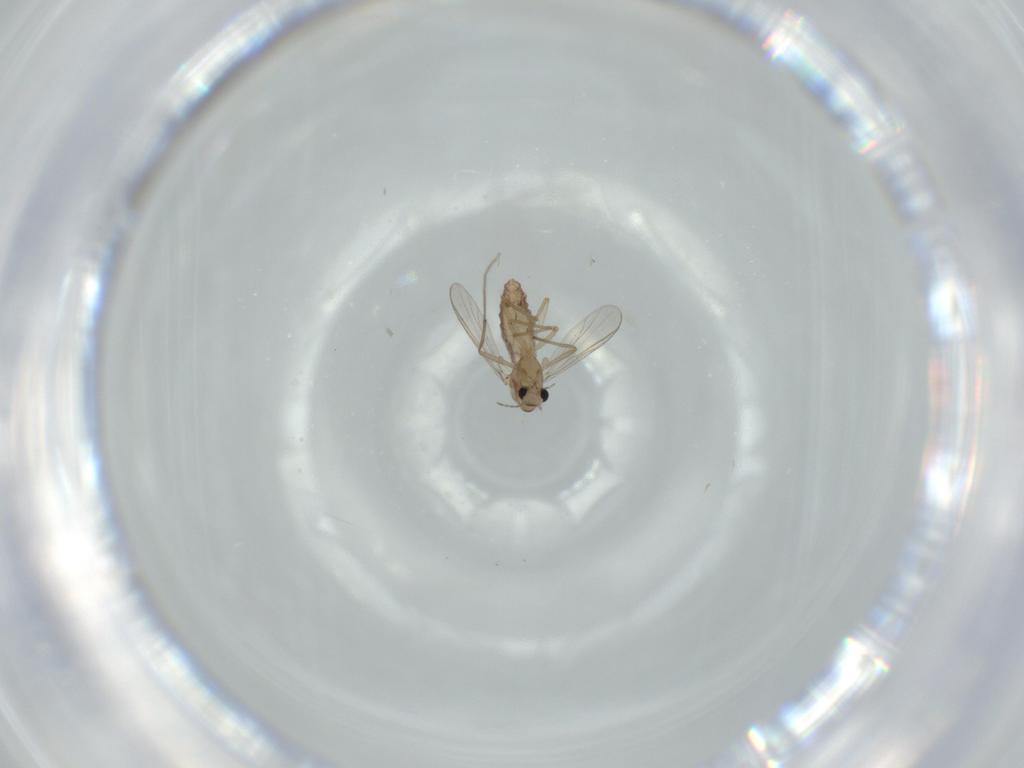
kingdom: Animalia
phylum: Arthropoda
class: Insecta
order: Diptera
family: Chironomidae
